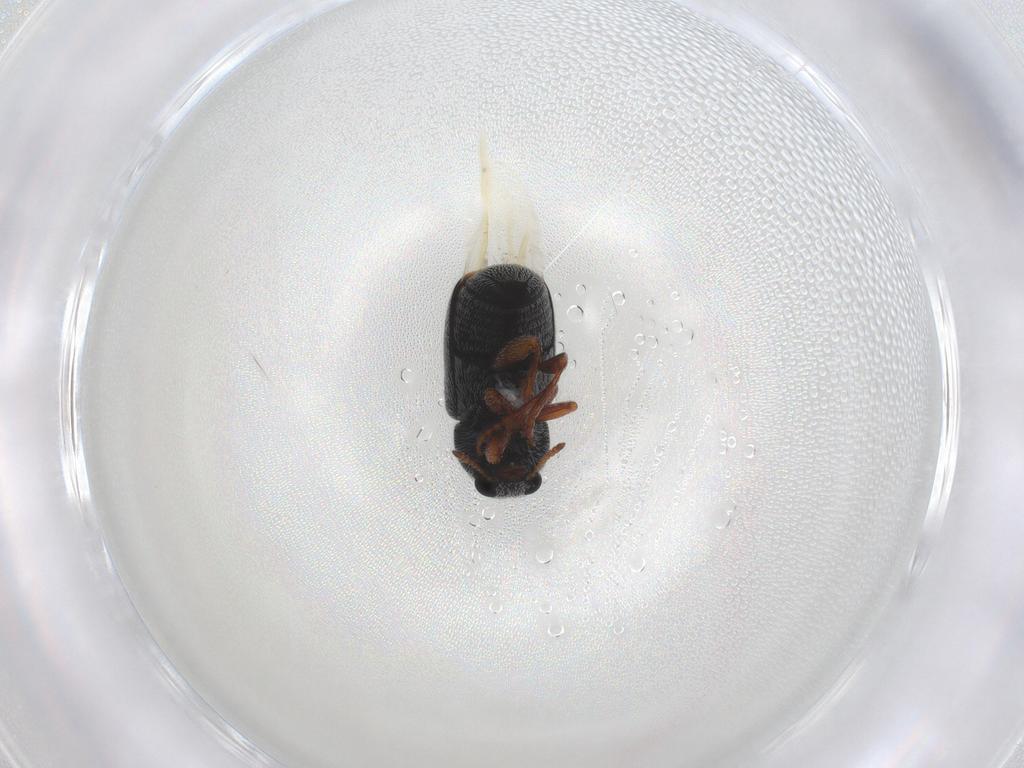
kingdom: Animalia
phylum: Arthropoda
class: Insecta
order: Coleoptera
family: Anthribidae
